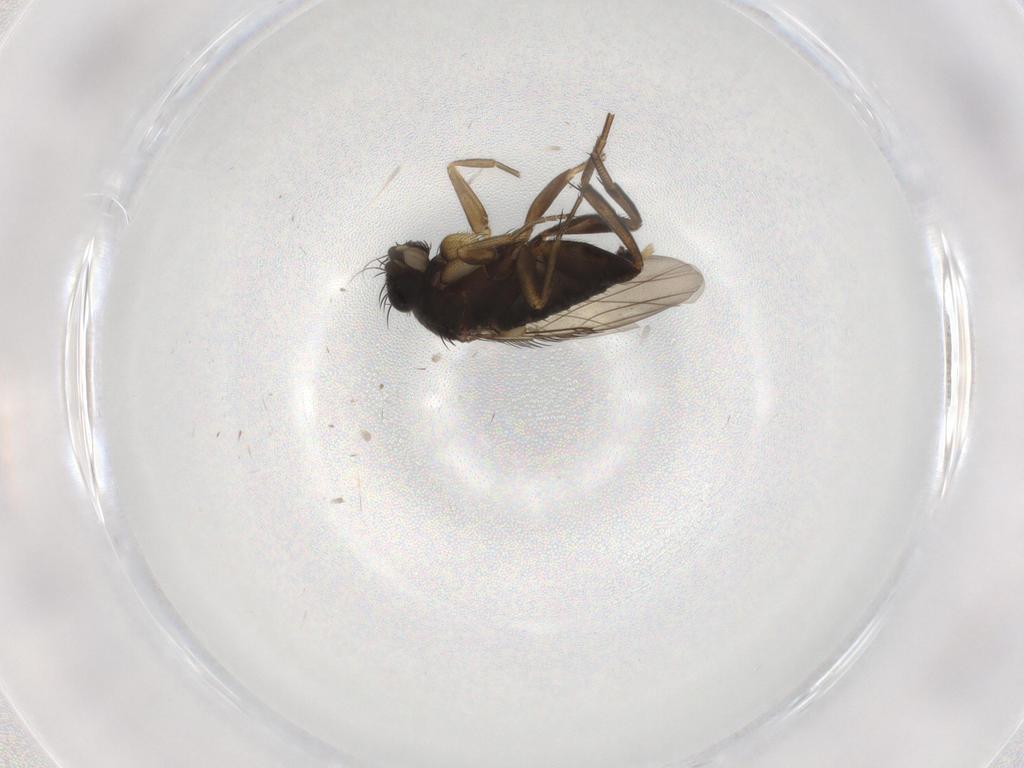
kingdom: Animalia
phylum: Arthropoda
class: Insecta
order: Diptera
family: Phoridae
